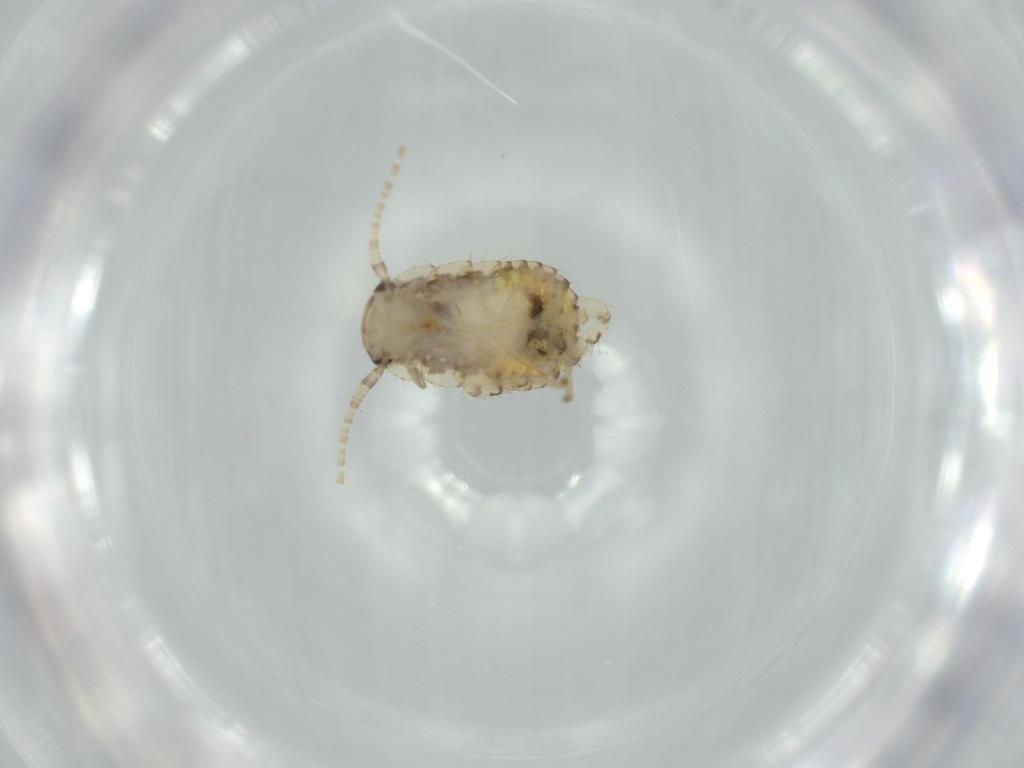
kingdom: Animalia
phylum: Arthropoda
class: Insecta
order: Blattodea
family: Ectobiidae
